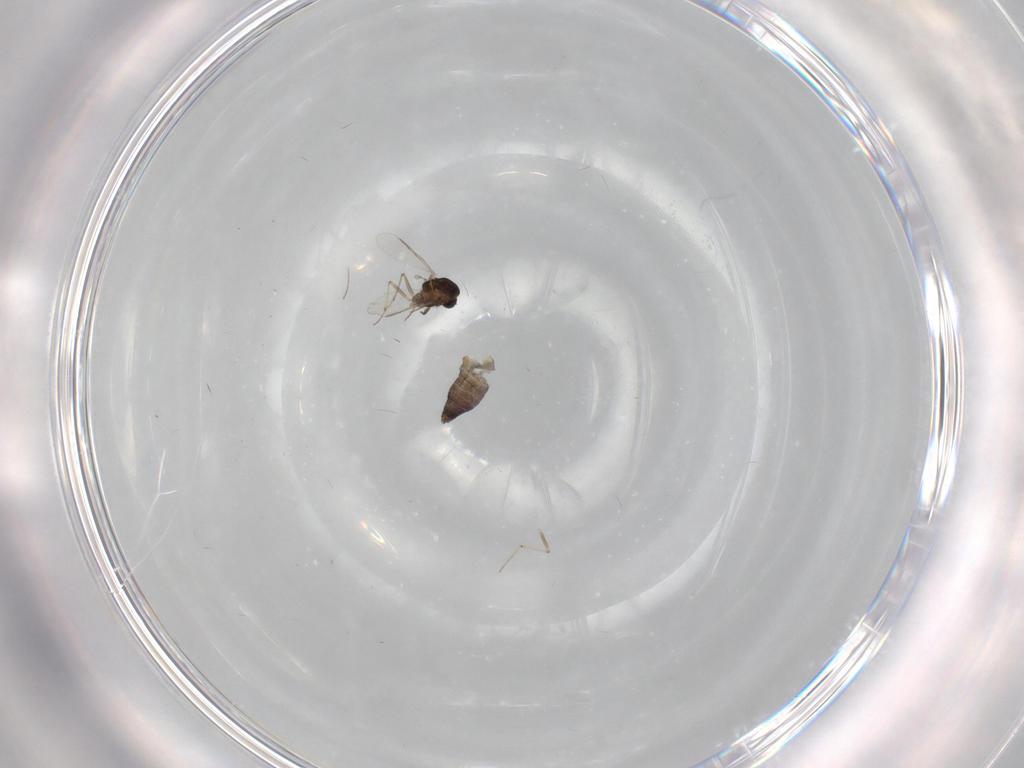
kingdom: Animalia
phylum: Arthropoda
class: Insecta
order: Diptera
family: Chironomidae
